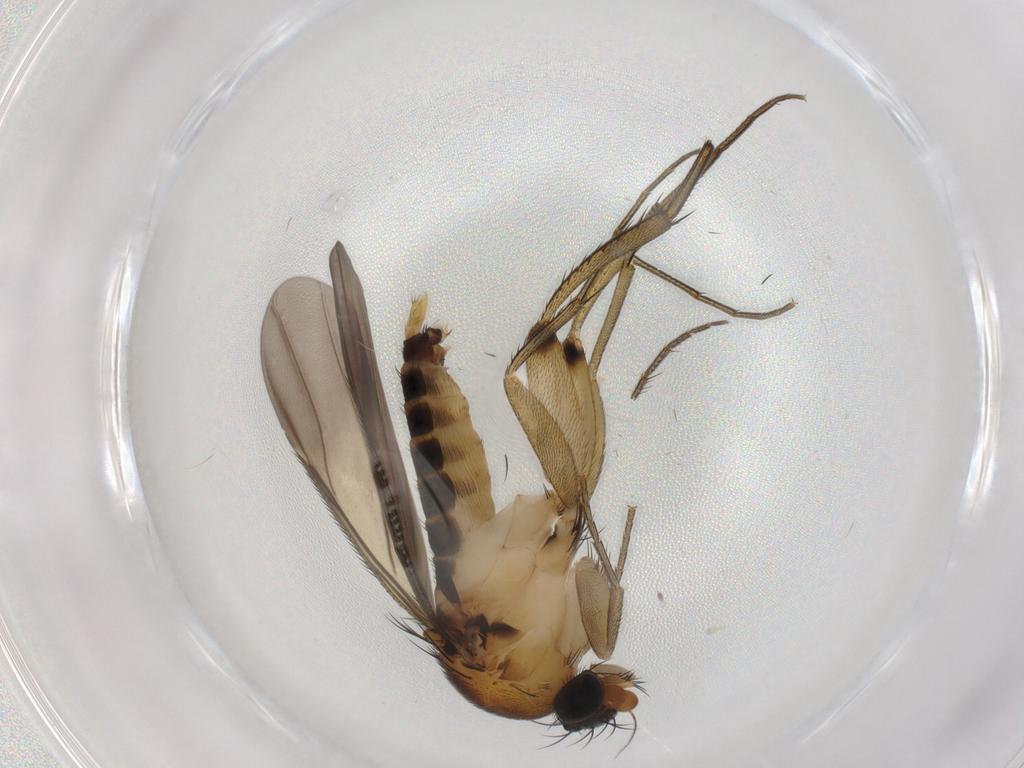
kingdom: Animalia
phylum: Arthropoda
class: Insecta
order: Diptera
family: Phoridae
